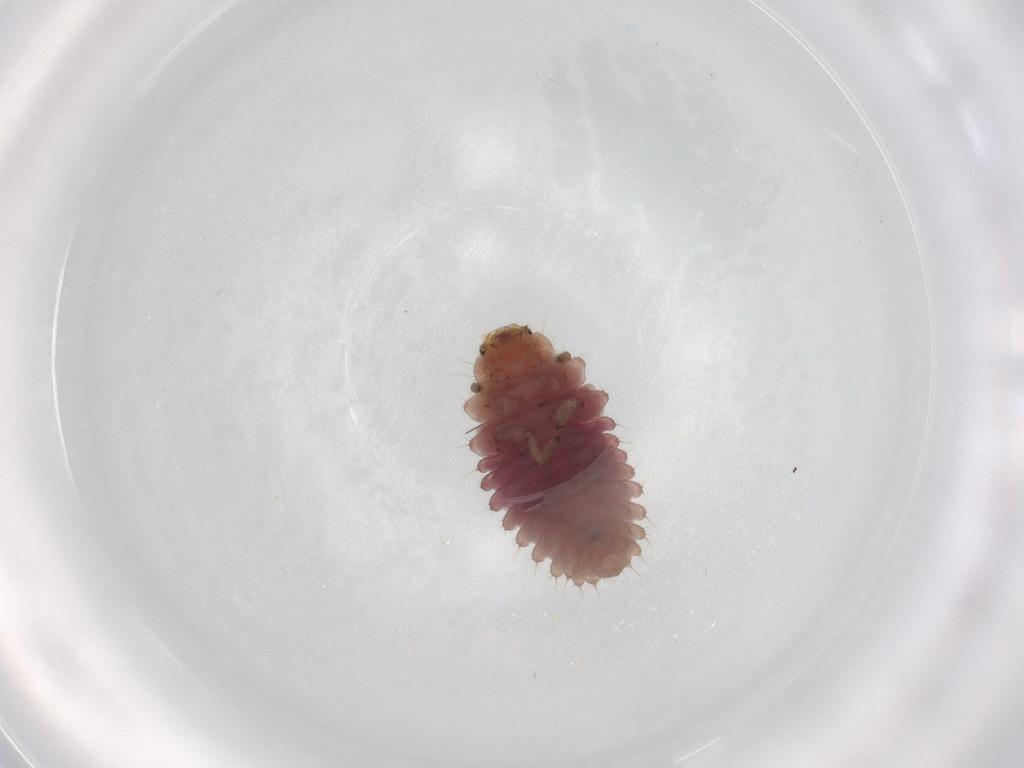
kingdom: Animalia
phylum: Arthropoda
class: Insecta
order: Coleoptera
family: Coccinellidae
